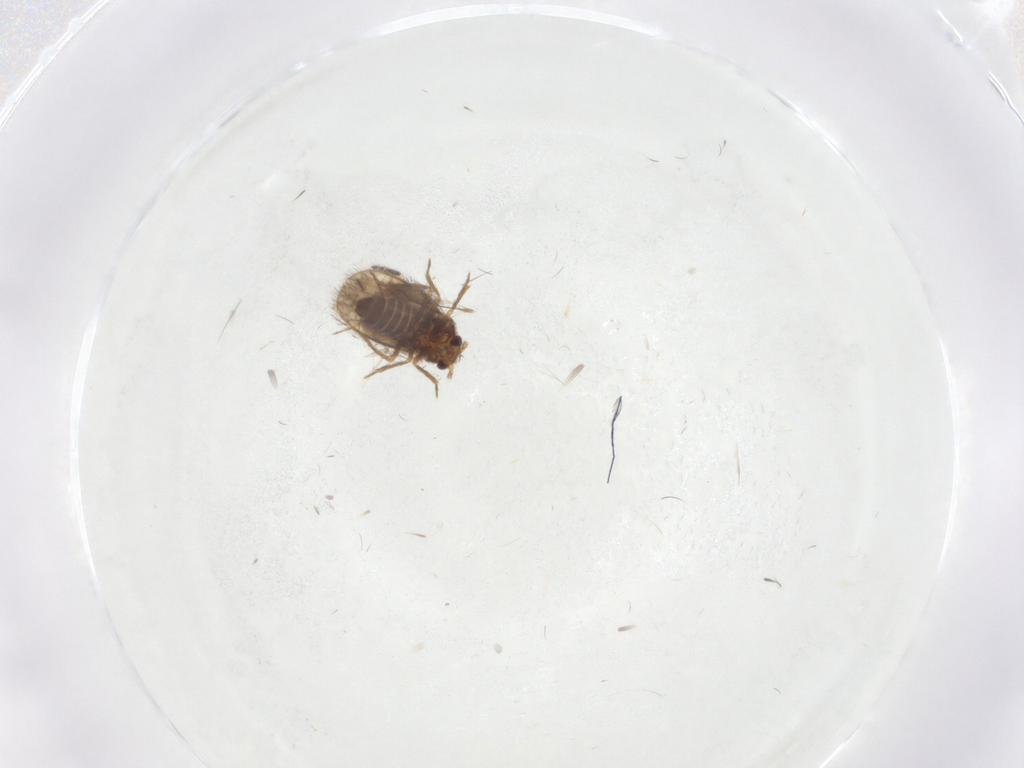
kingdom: Animalia
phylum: Arthropoda
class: Insecta
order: Hemiptera
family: Schizopteridae
